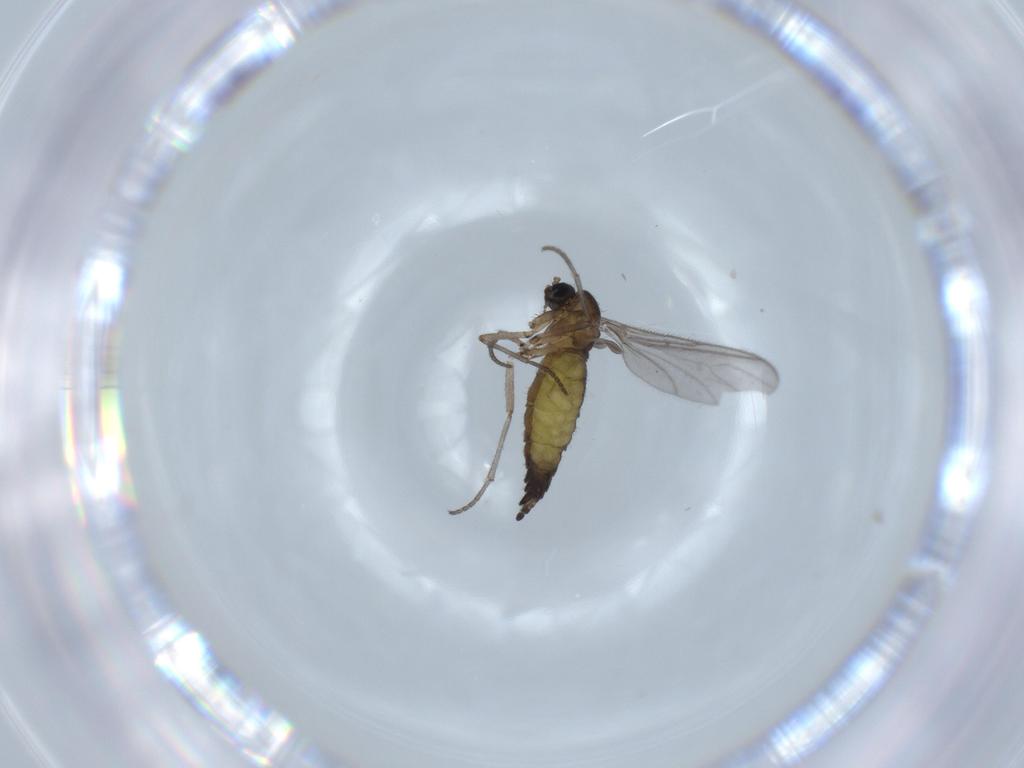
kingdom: Animalia
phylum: Arthropoda
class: Insecta
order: Diptera
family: Sciaridae
